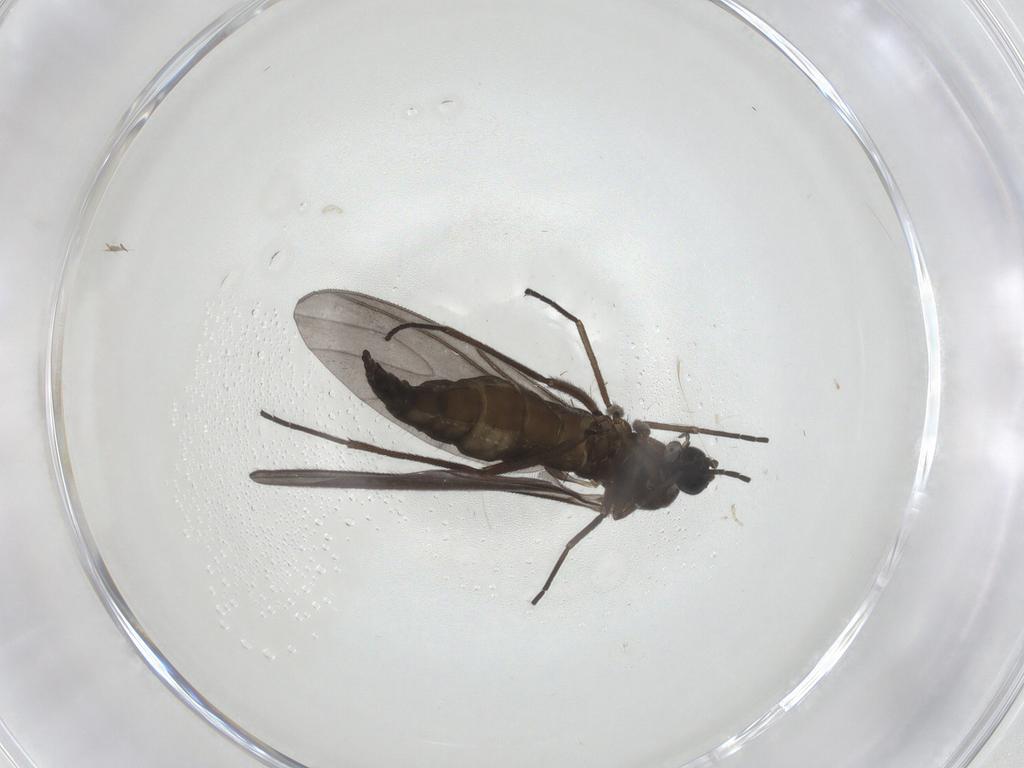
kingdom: Animalia
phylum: Arthropoda
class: Insecta
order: Diptera
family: Sciaridae
